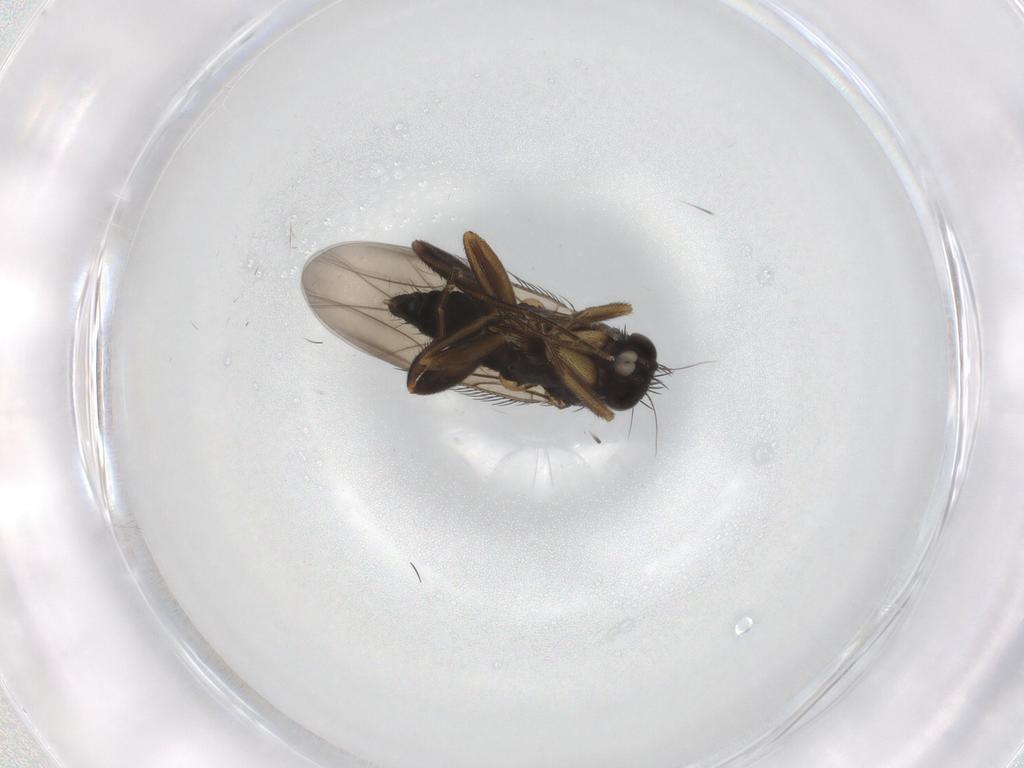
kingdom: Animalia
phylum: Arthropoda
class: Insecta
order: Diptera
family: Phoridae
